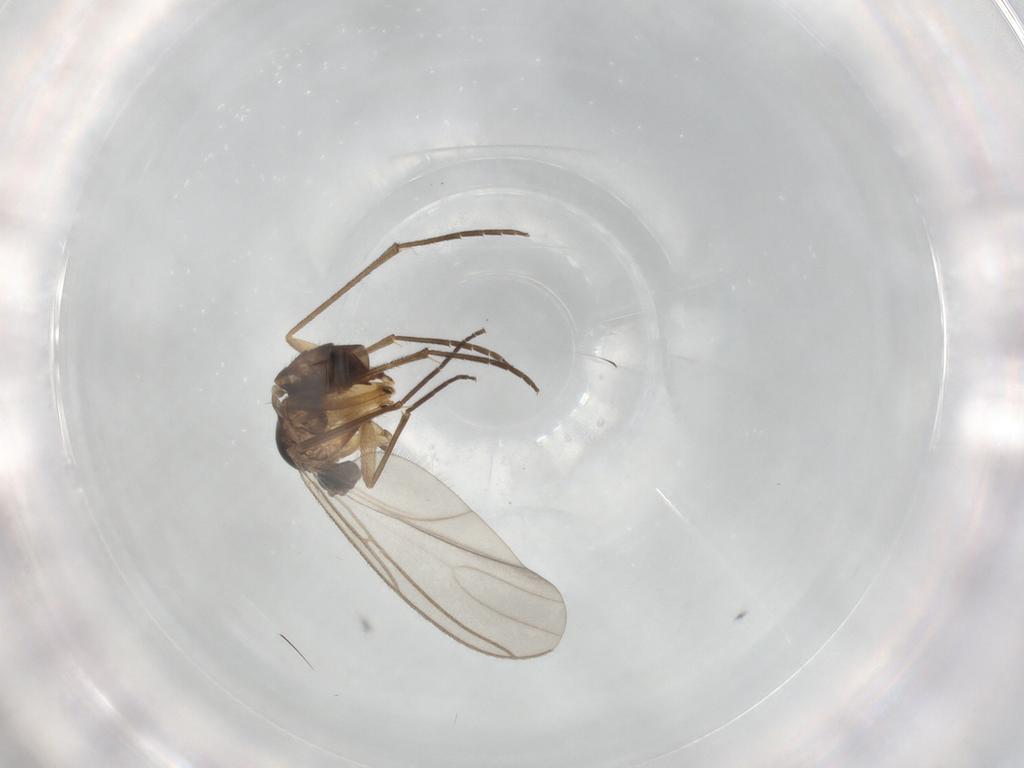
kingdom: Animalia
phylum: Arthropoda
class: Insecta
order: Diptera
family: Sciaridae
